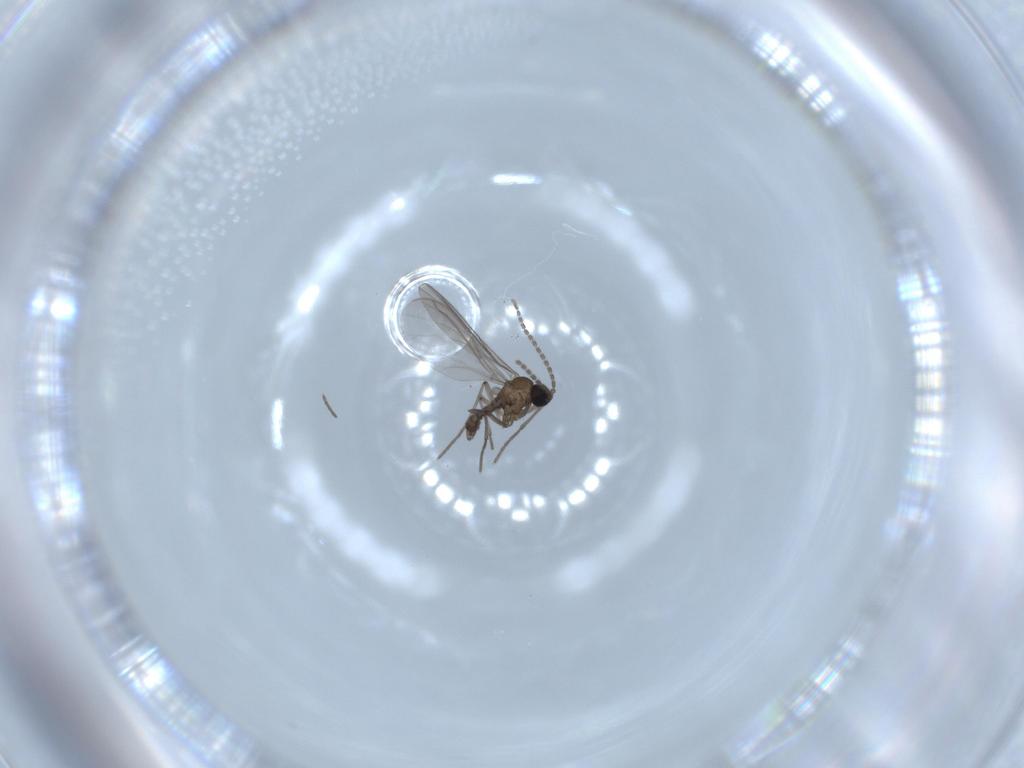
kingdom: Animalia
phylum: Arthropoda
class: Insecta
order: Diptera
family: Sciaridae
